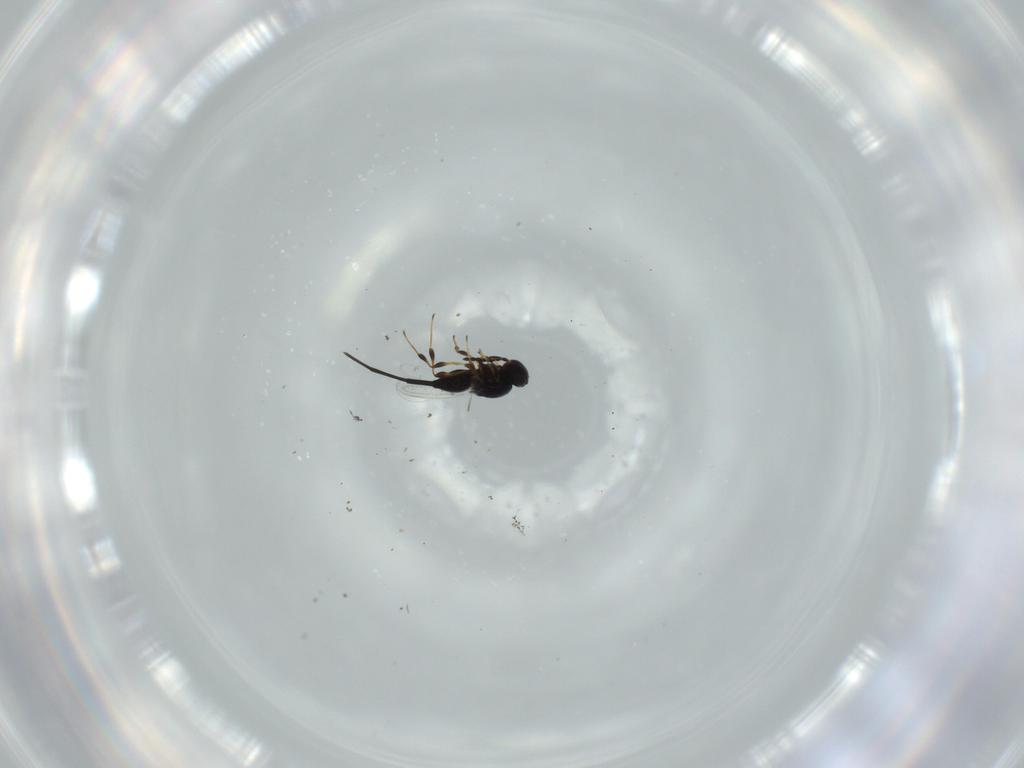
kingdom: Animalia
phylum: Arthropoda
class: Insecta
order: Hymenoptera
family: Platygastridae
